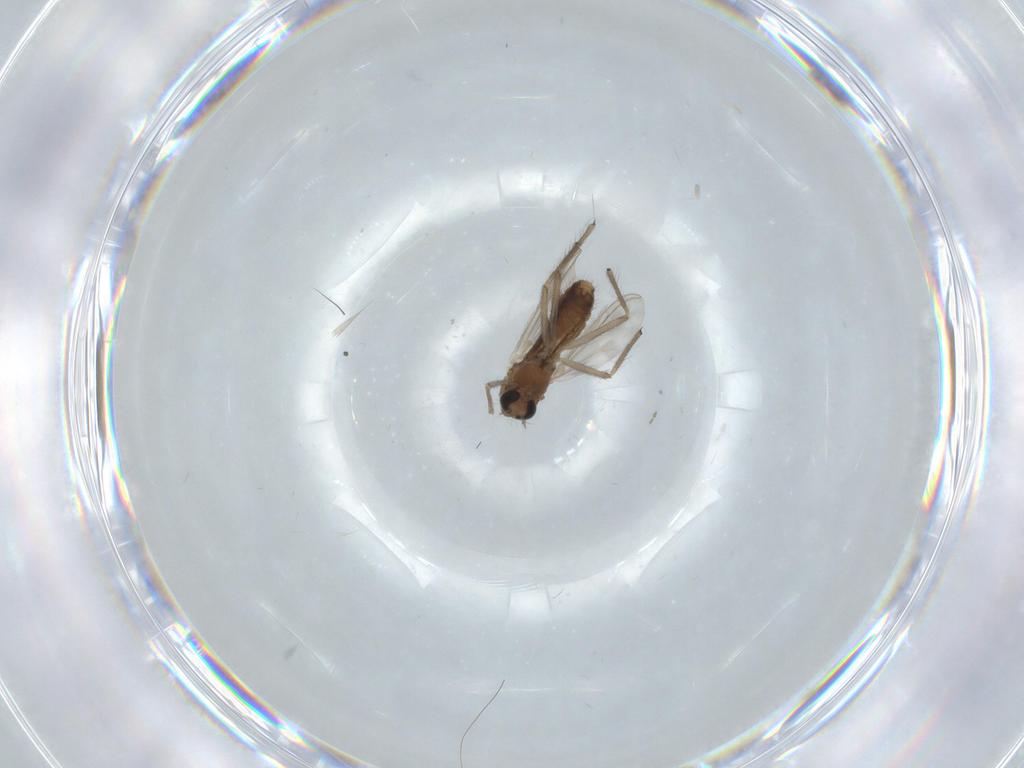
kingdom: Animalia
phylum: Arthropoda
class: Insecta
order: Diptera
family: Chironomidae
